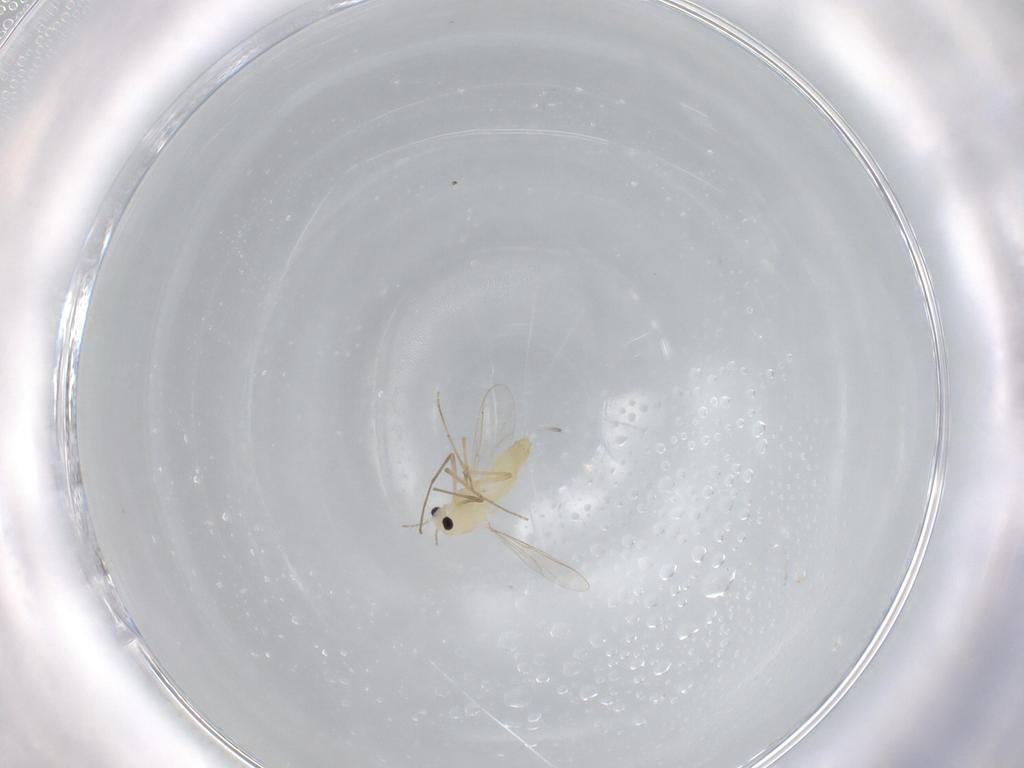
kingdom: Animalia
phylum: Arthropoda
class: Insecta
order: Diptera
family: Chironomidae
